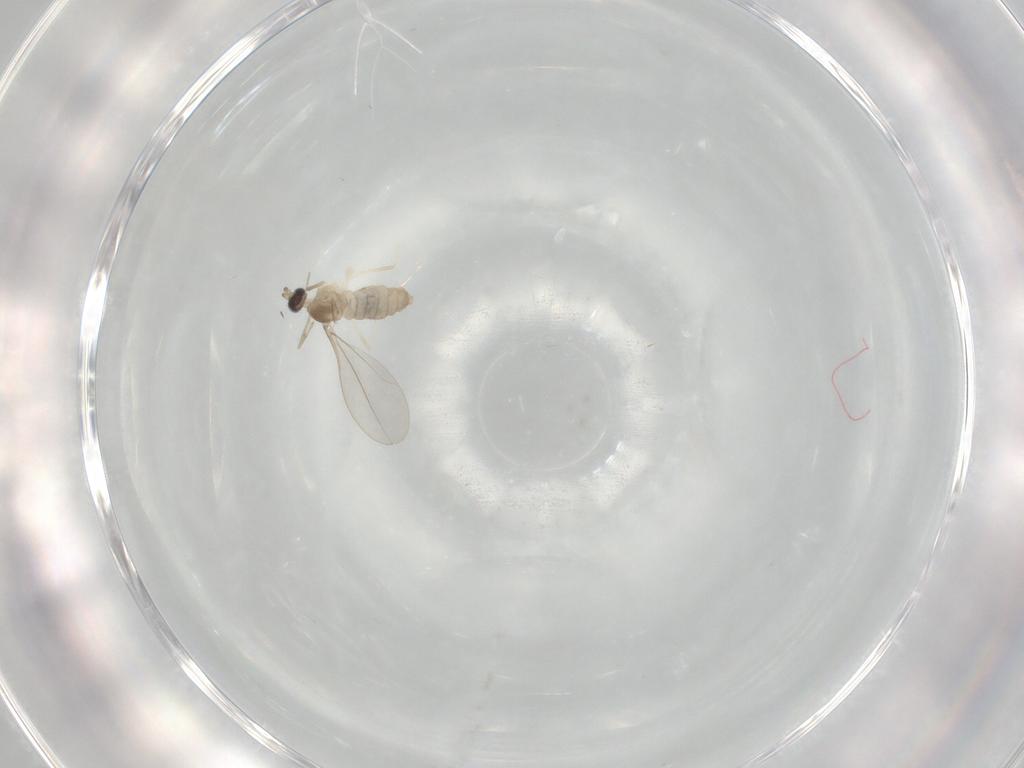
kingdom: Animalia
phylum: Arthropoda
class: Insecta
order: Diptera
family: Cecidomyiidae
